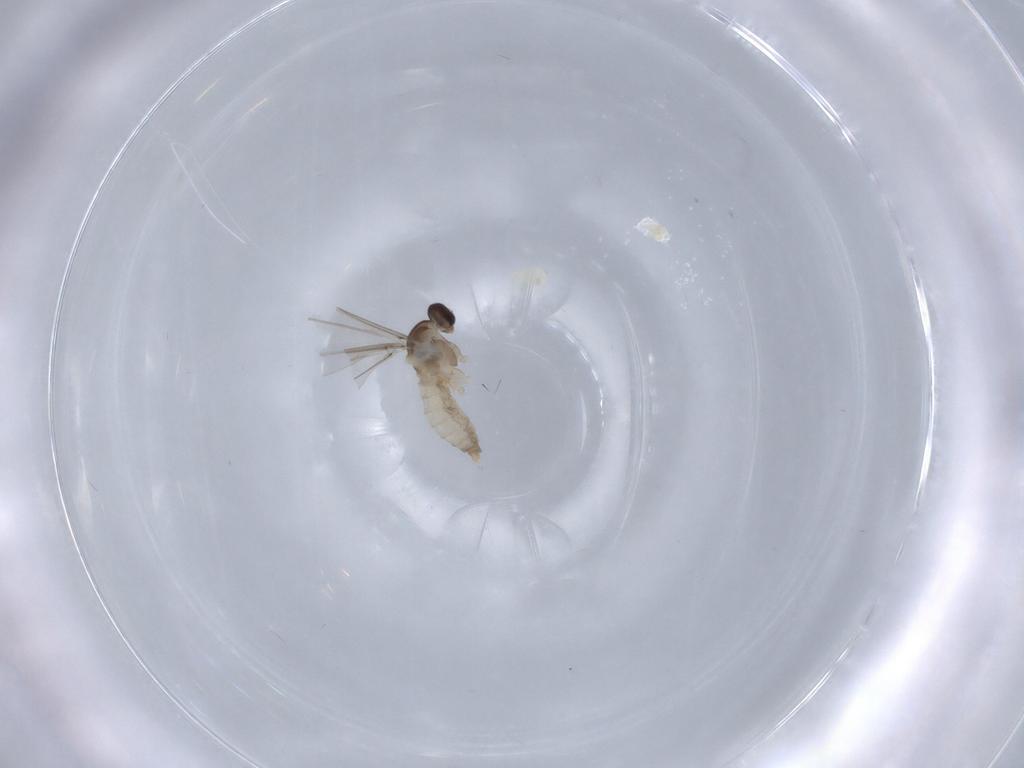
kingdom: Animalia
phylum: Arthropoda
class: Insecta
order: Diptera
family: Cecidomyiidae
